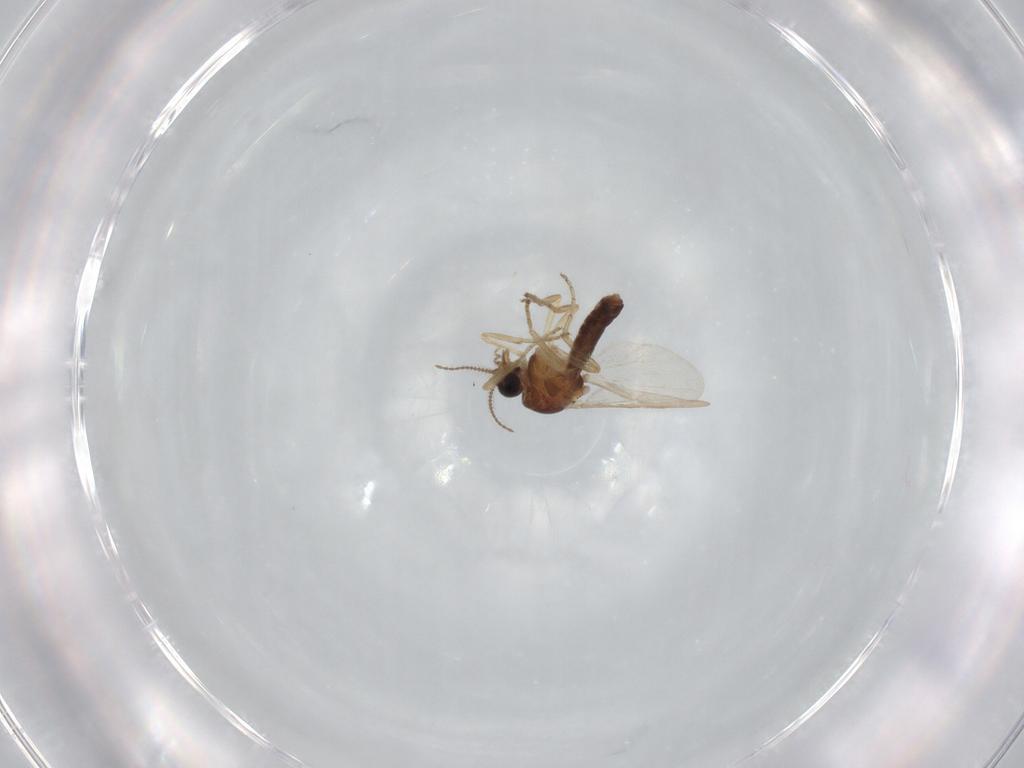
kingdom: Animalia
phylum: Arthropoda
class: Insecta
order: Diptera
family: Ceratopogonidae
